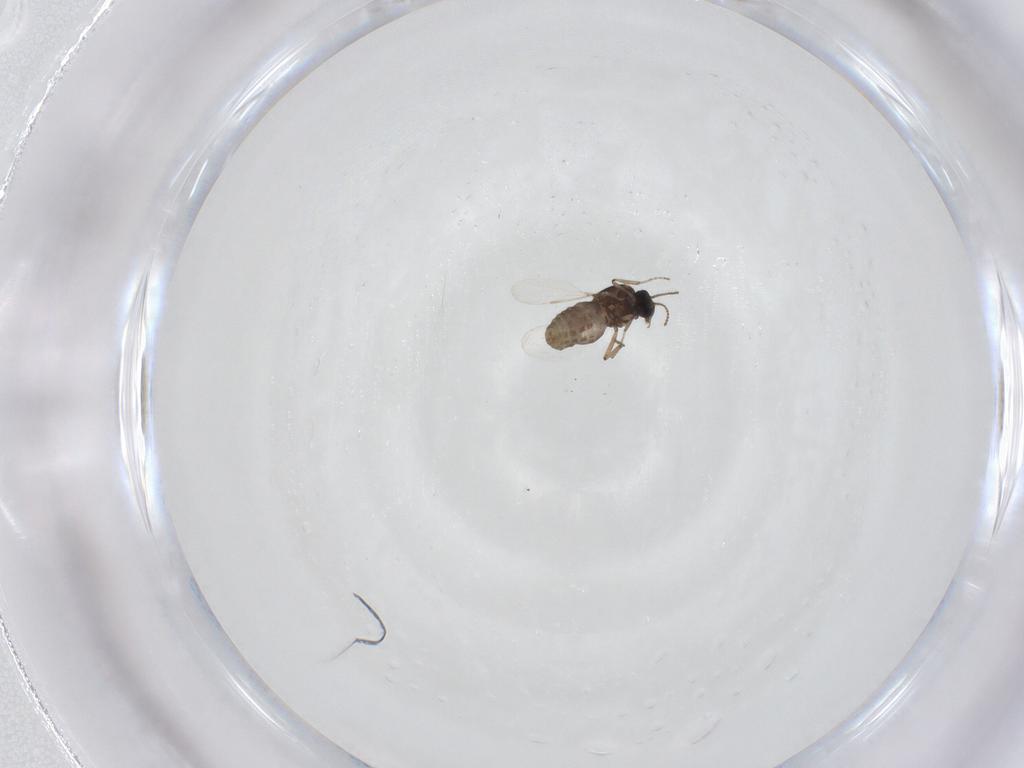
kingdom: Animalia
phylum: Arthropoda
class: Insecta
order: Diptera
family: Ceratopogonidae
